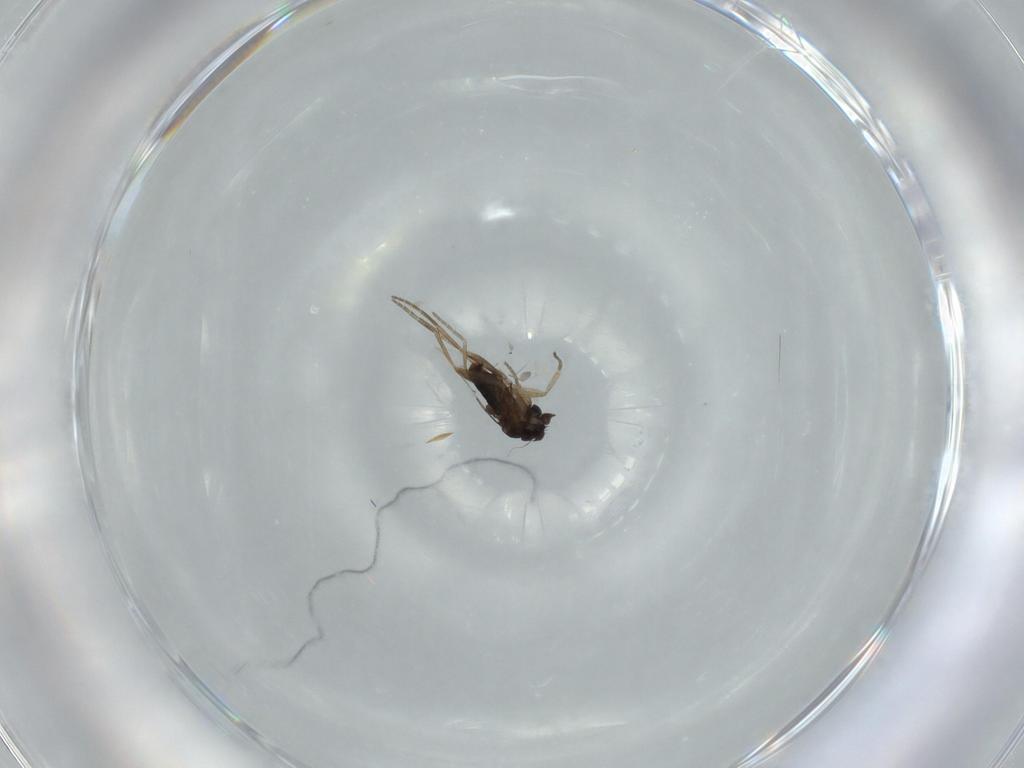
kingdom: Animalia
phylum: Arthropoda
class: Insecta
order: Diptera
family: Phoridae
